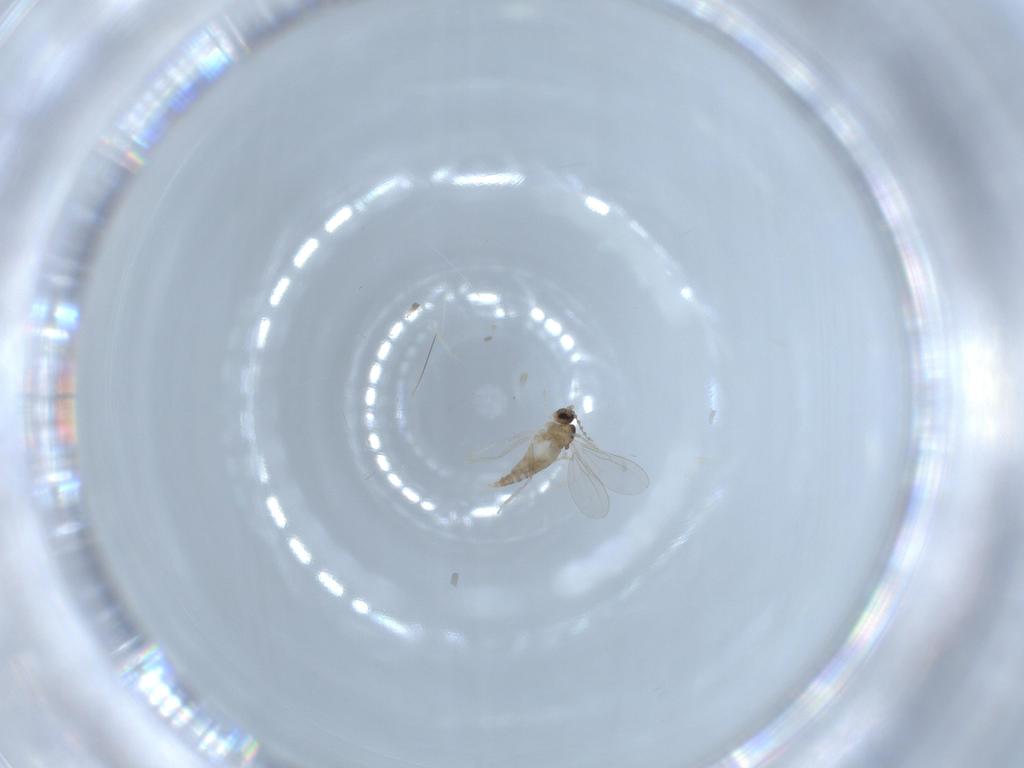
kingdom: Animalia
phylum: Arthropoda
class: Insecta
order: Diptera
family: Cecidomyiidae
